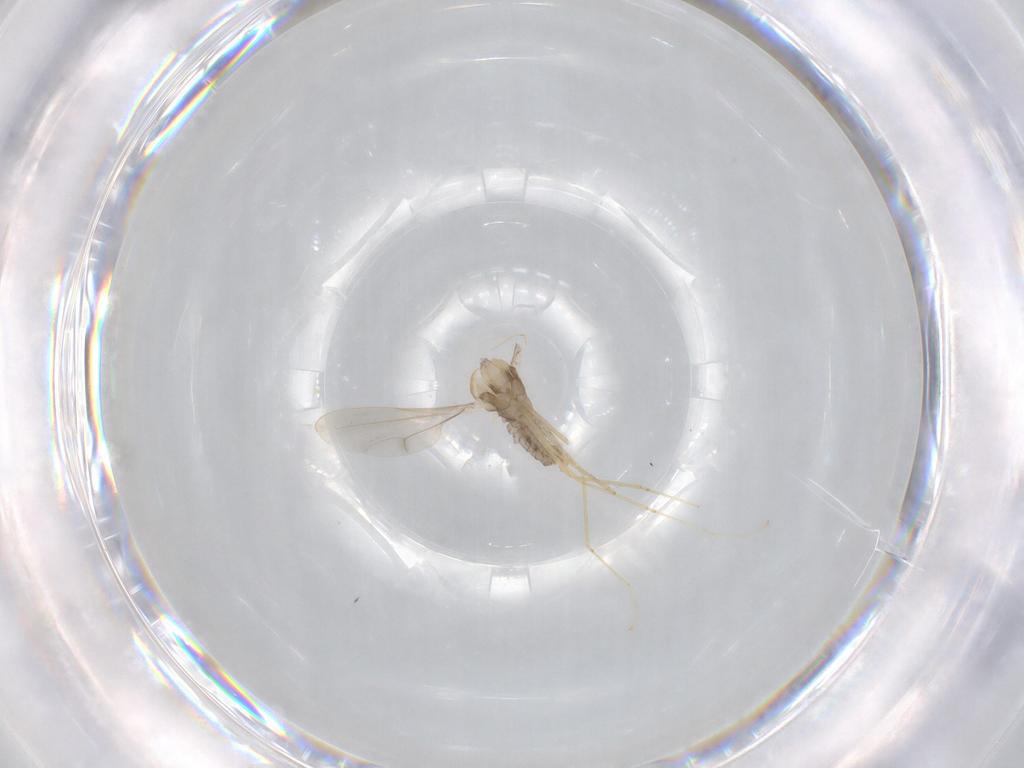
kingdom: Animalia
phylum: Arthropoda
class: Insecta
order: Diptera
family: Cecidomyiidae
